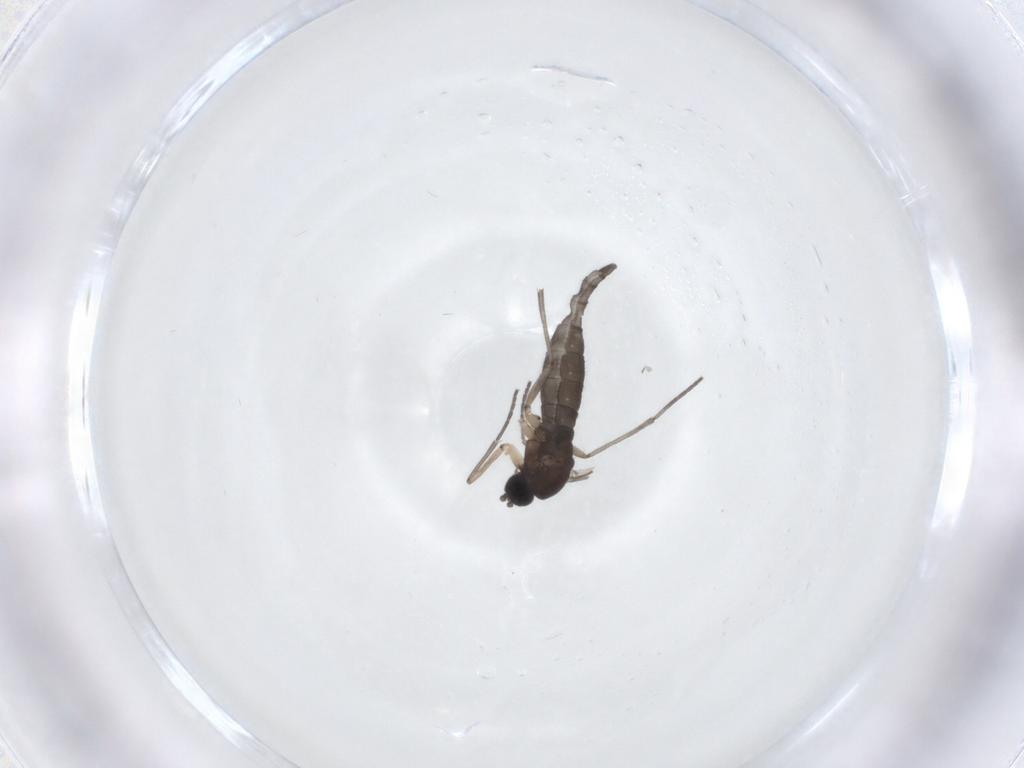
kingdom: Animalia
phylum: Arthropoda
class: Insecta
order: Diptera
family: Sciaridae
